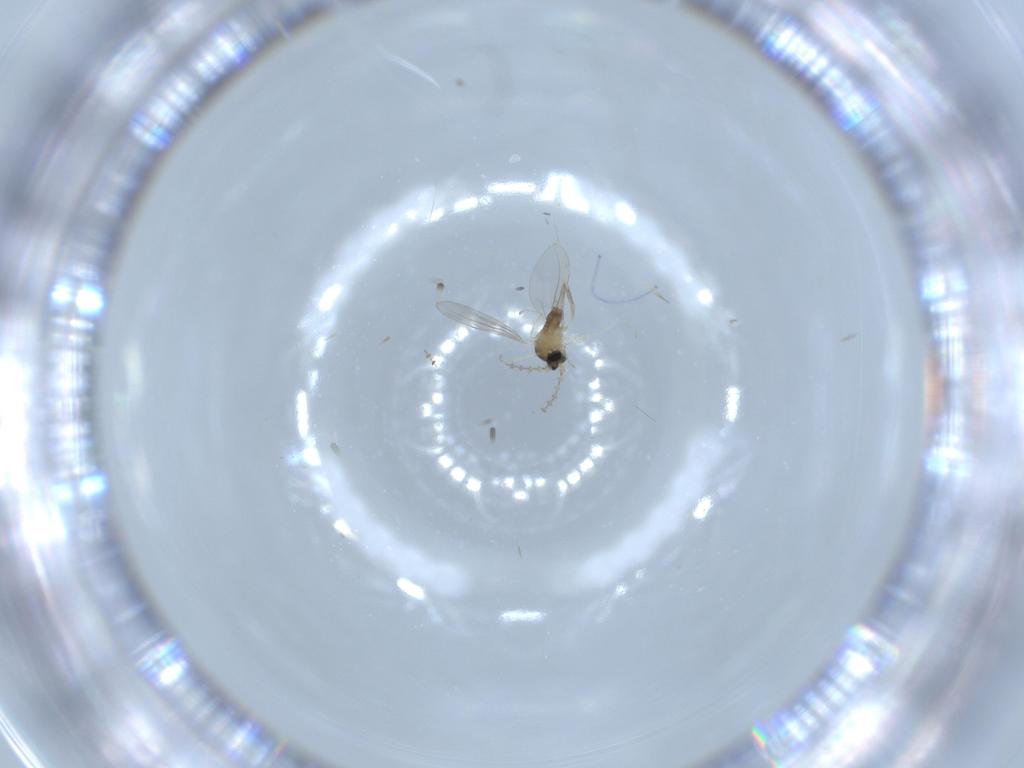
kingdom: Animalia
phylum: Arthropoda
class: Insecta
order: Diptera
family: Cecidomyiidae
